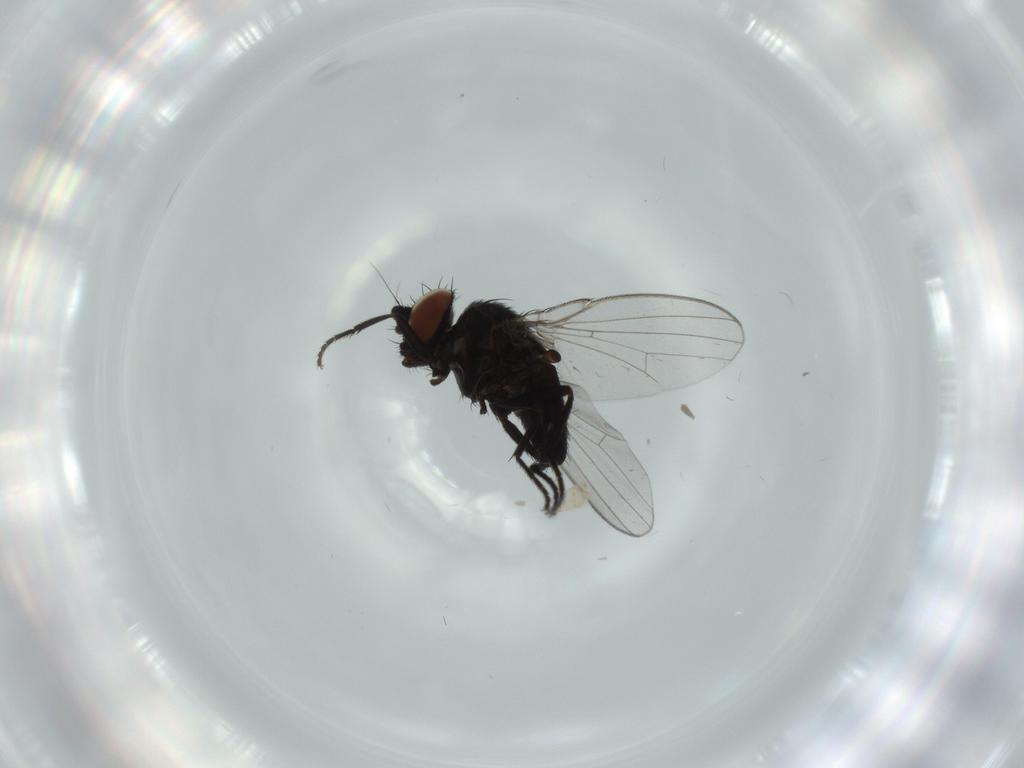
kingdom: Animalia
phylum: Arthropoda
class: Insecta
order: Diptera
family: Milichiidae
